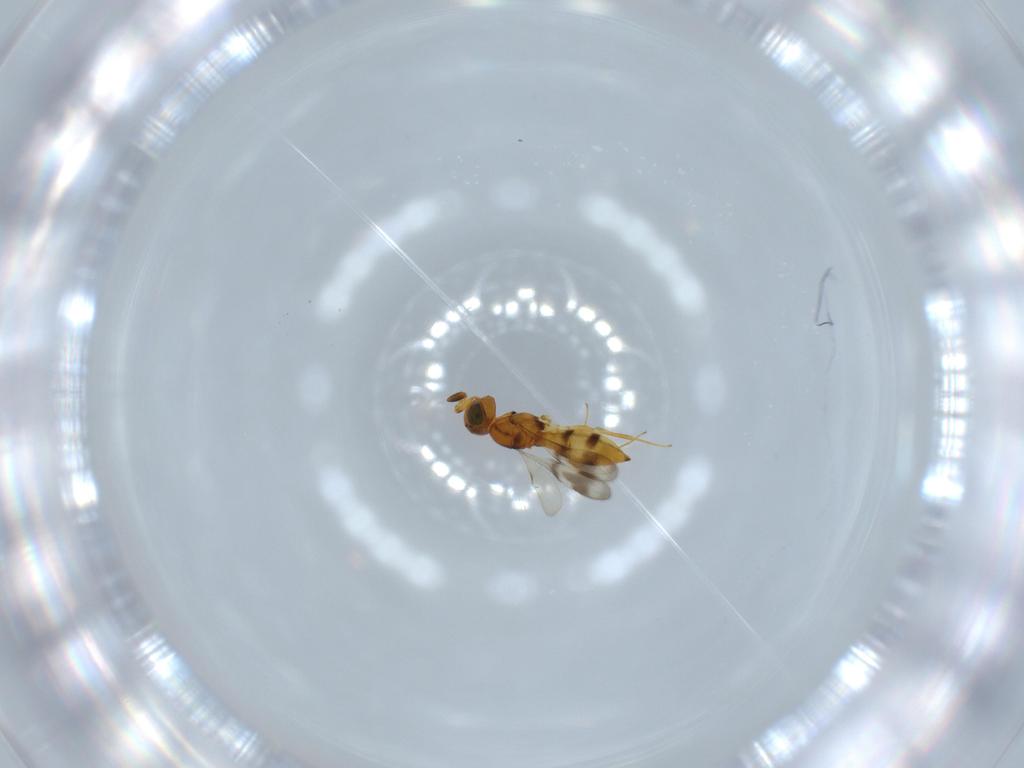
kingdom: Animalia
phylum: Arthropoda
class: Insecta
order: Hymenoptera
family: Scelionidae
